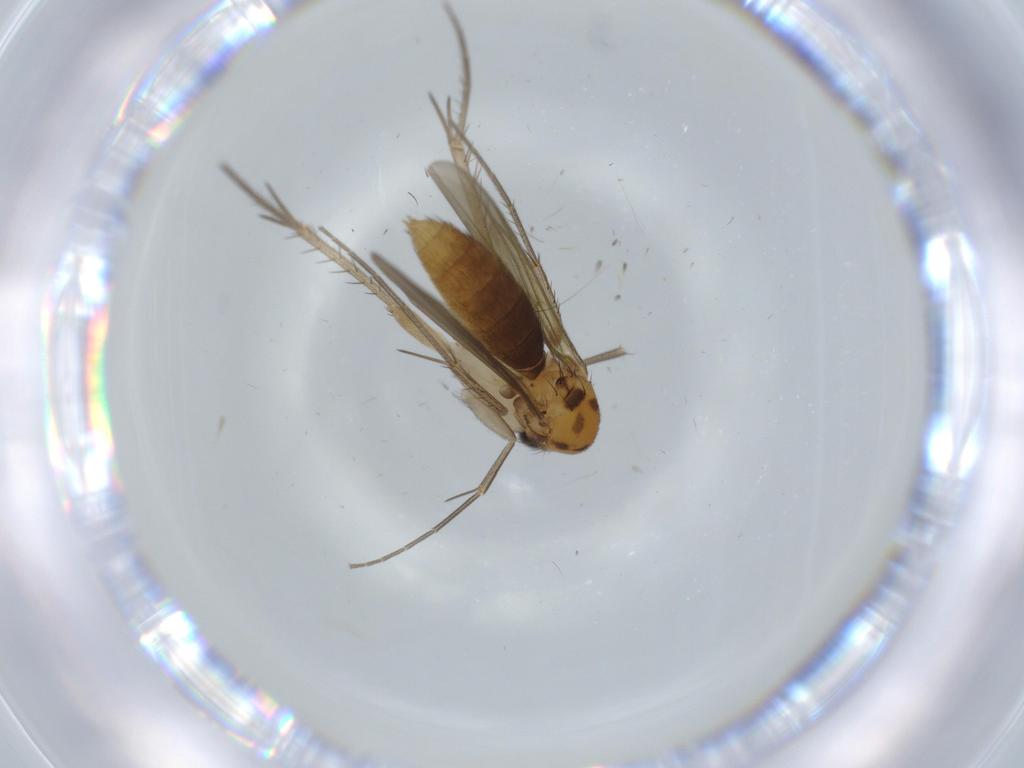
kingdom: Animalia
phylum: Arthropoda
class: Insecta
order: Diptera
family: Mycetophilidae
